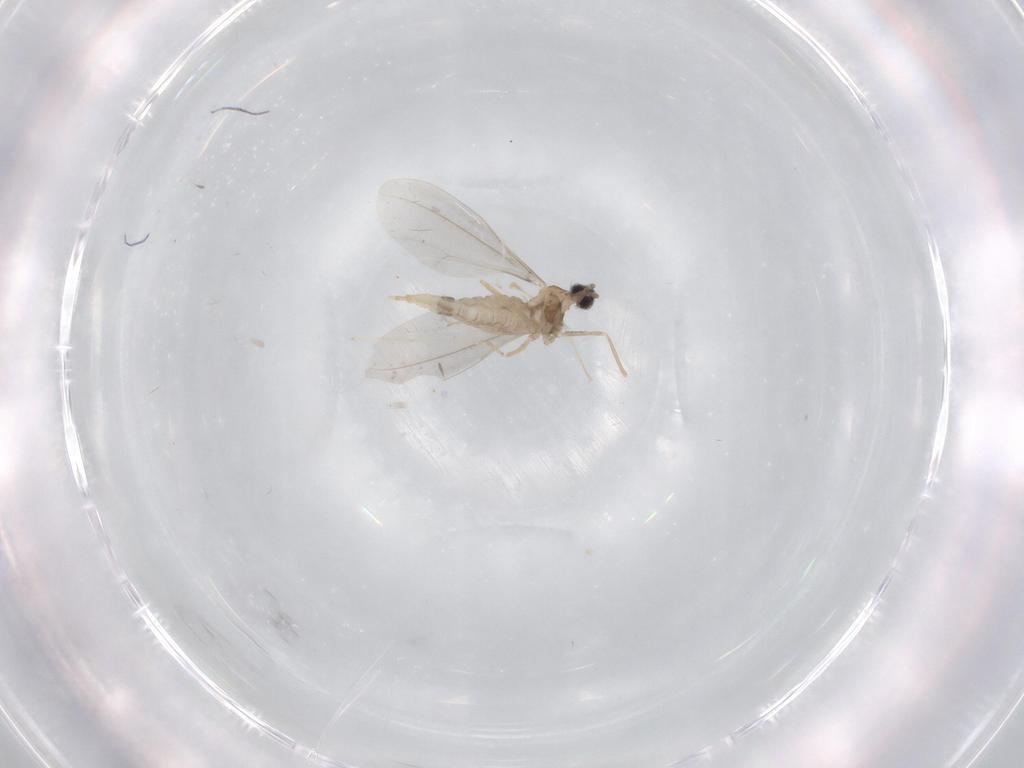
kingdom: Animalia
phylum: Arthropoda
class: Insecta
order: Diptera
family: Cecidomyiidae
